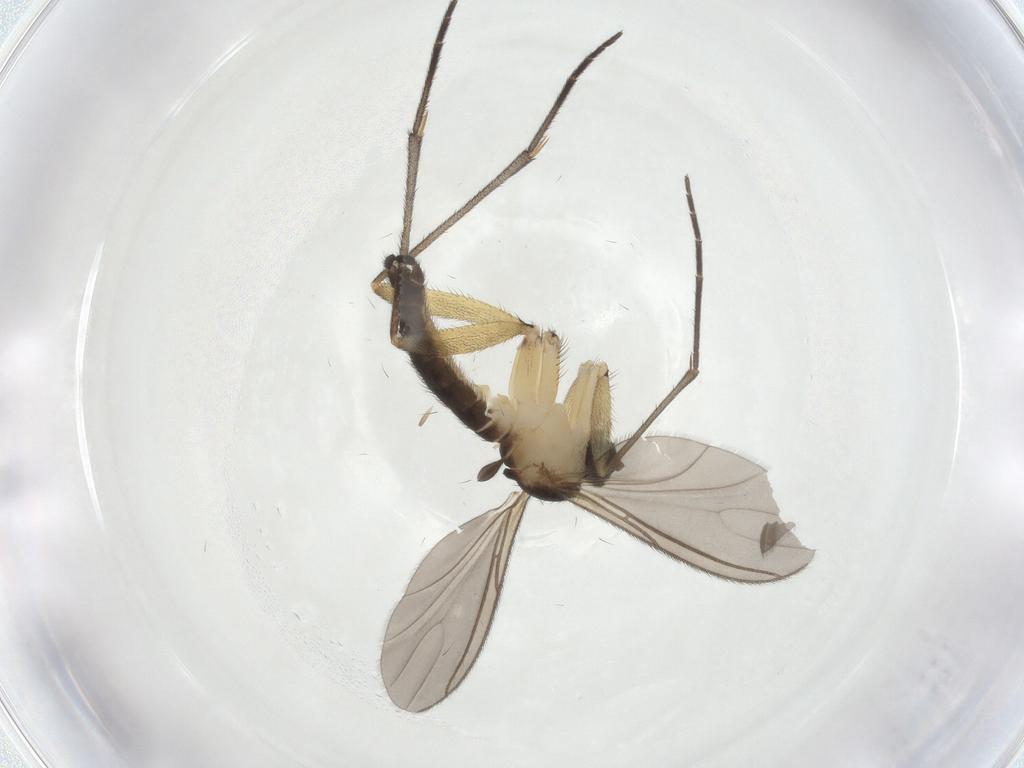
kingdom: Animalia
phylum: Arthropoda
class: Insecta
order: Diptera
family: Sciaridae
